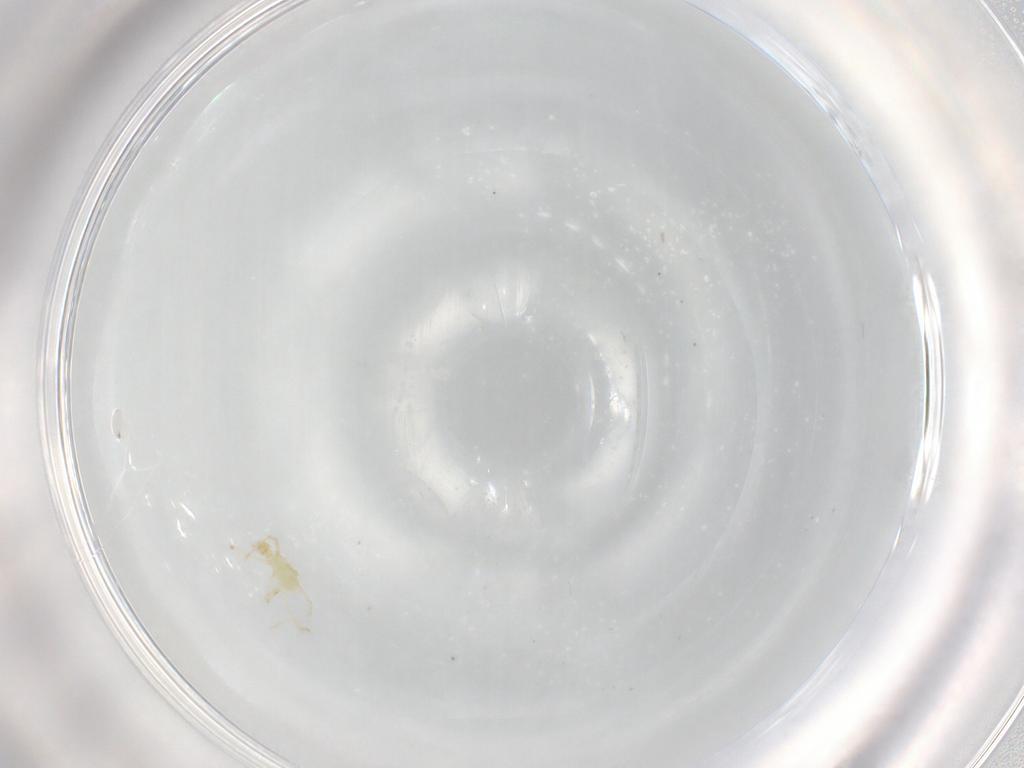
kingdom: Animalia
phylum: Arthropoda
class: Arachnida
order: Trombidiformes
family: Erythraeidae
